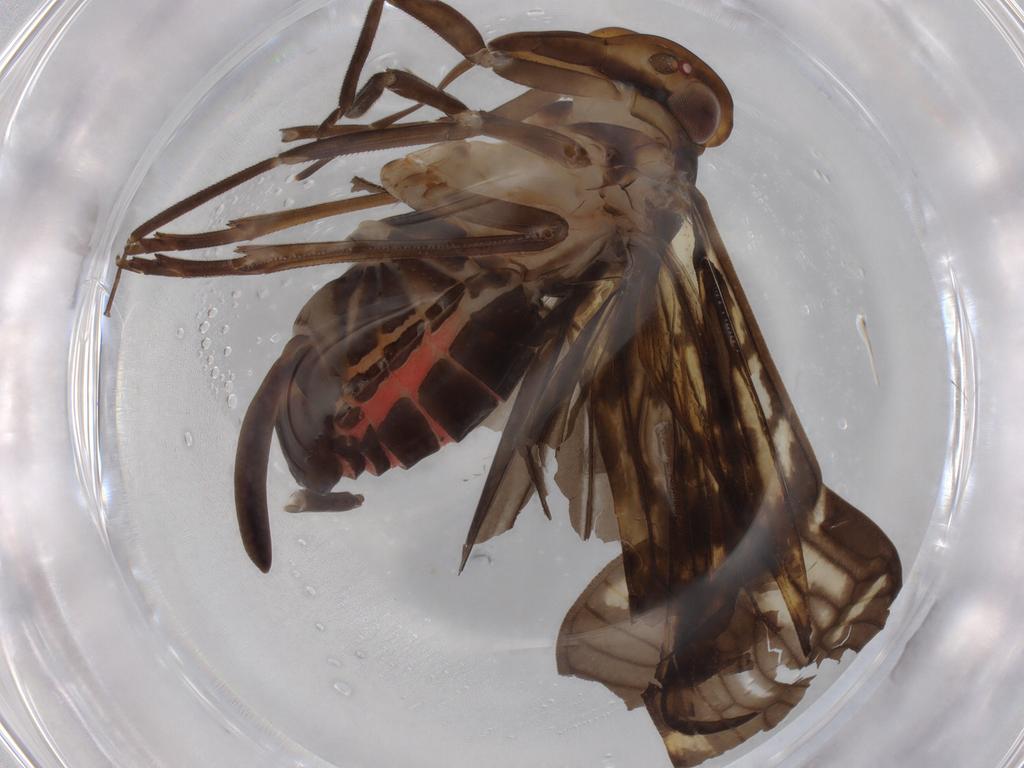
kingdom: Animalia
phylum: Arthropoda
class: Insecta
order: Hemiptera
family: Cixiidae
